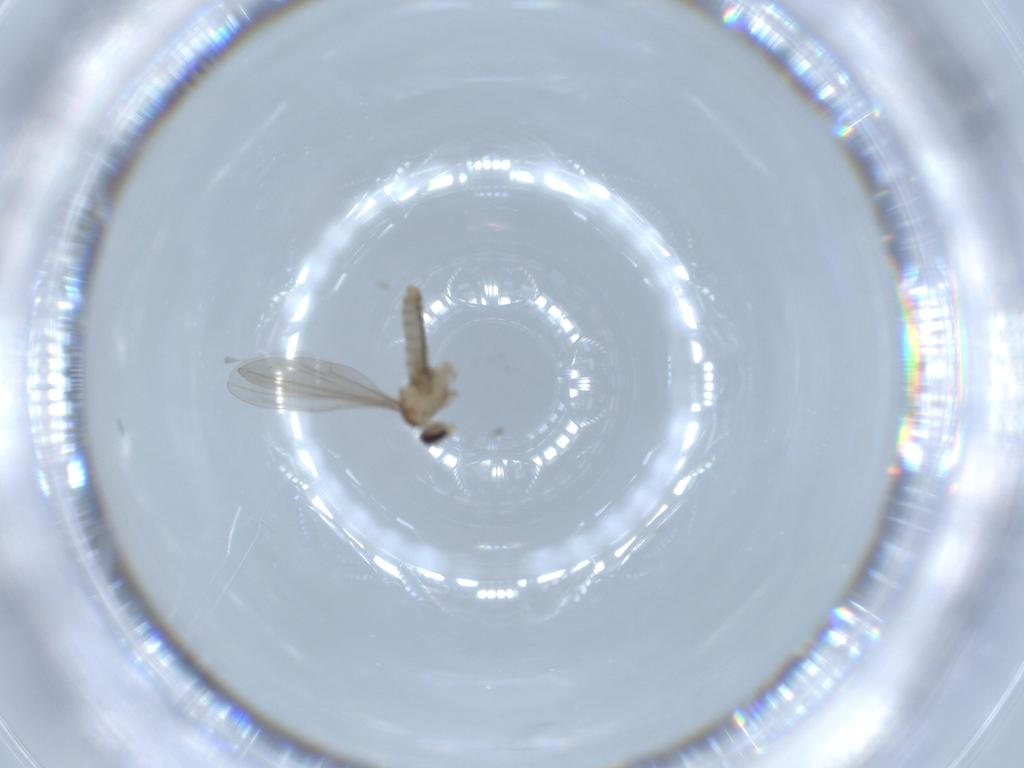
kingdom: Animalia
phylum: Arthropoda
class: Insecta
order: Diptera
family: Cecidomyiidae
